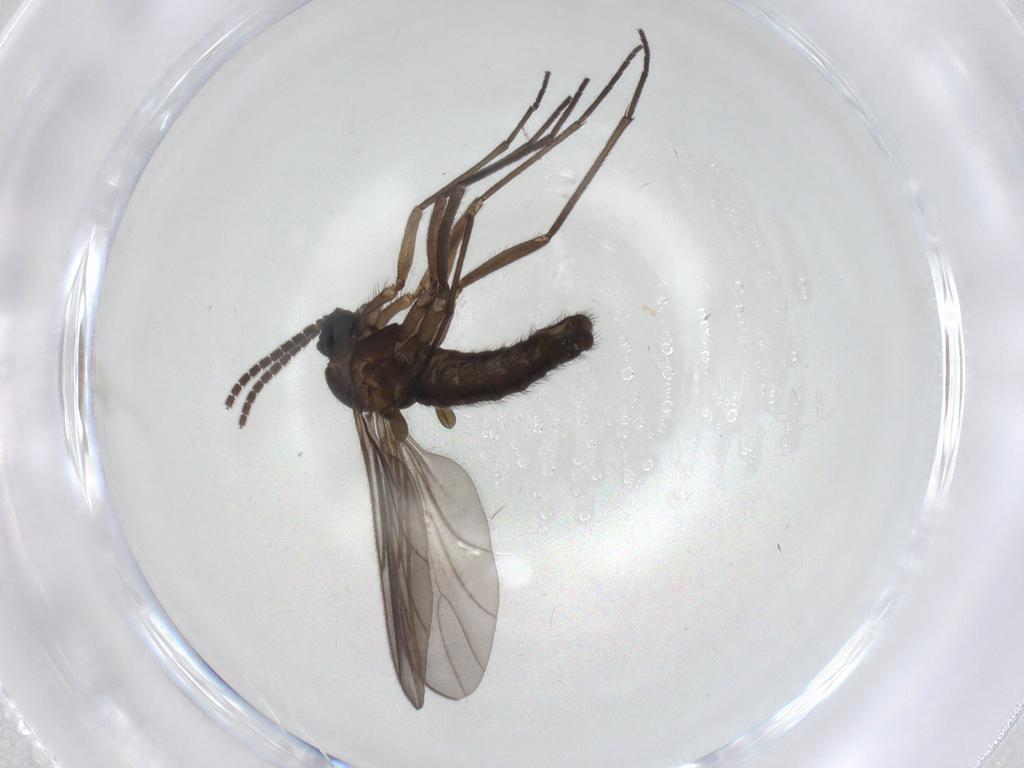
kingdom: Animalia
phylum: Arthropoda
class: Insecta
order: Diptera
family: Sciaridae
